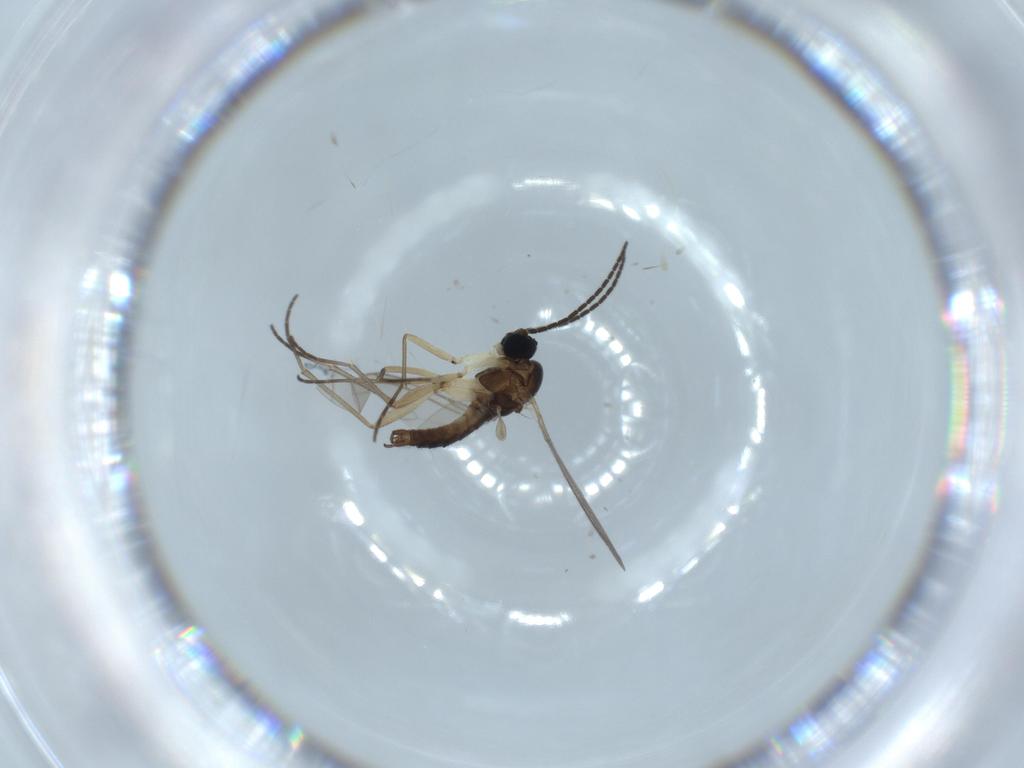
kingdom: Animalia
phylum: Arthropoda
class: Insecta
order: Diptera
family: Sciaridae
